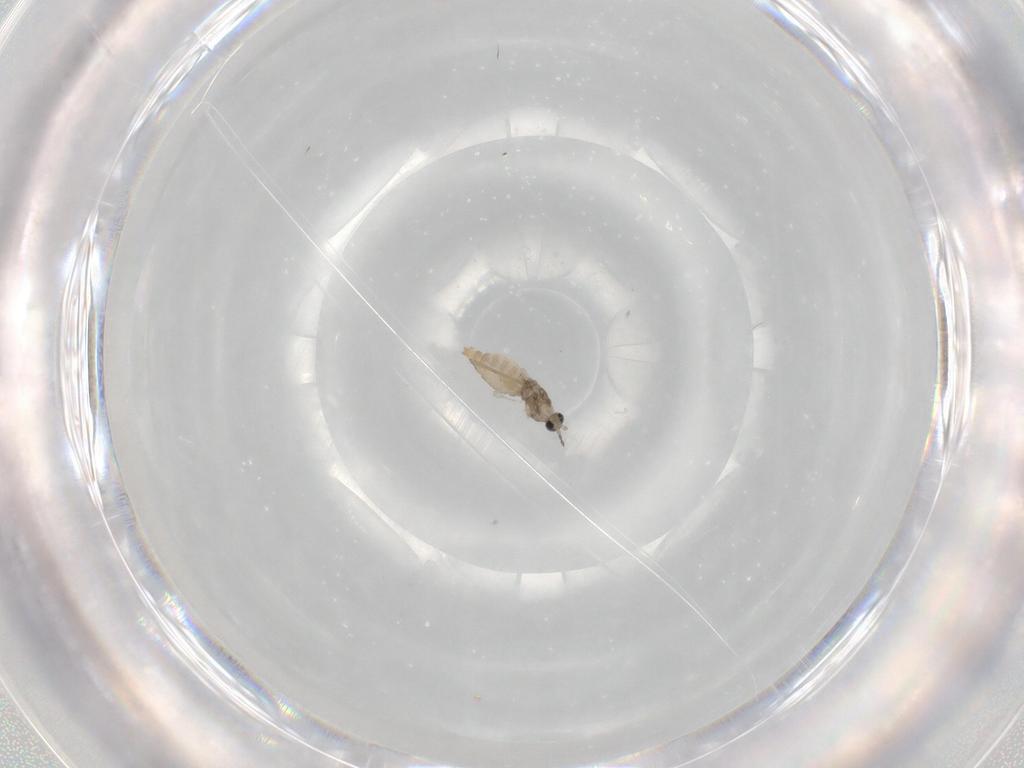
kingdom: Animalia
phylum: Arthropoda
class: Insecta
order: Diptera
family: Cecidomyiidae
